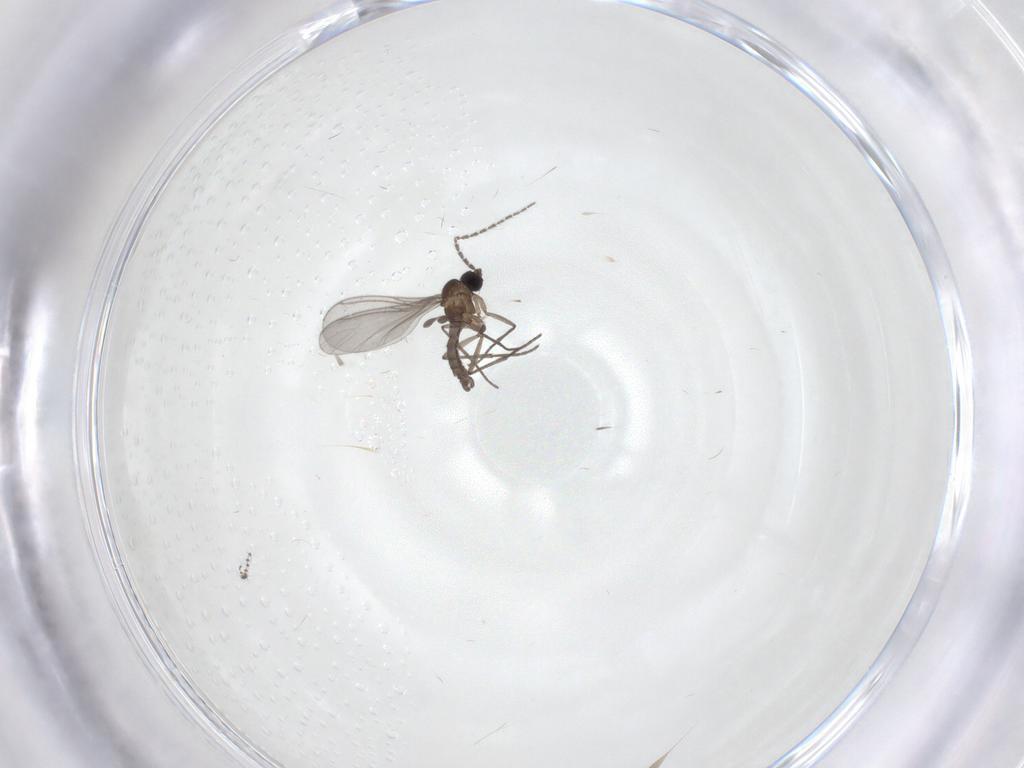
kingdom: Animalia
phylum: Arthropoda
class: Insecta
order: Diptera
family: Sciaridae
